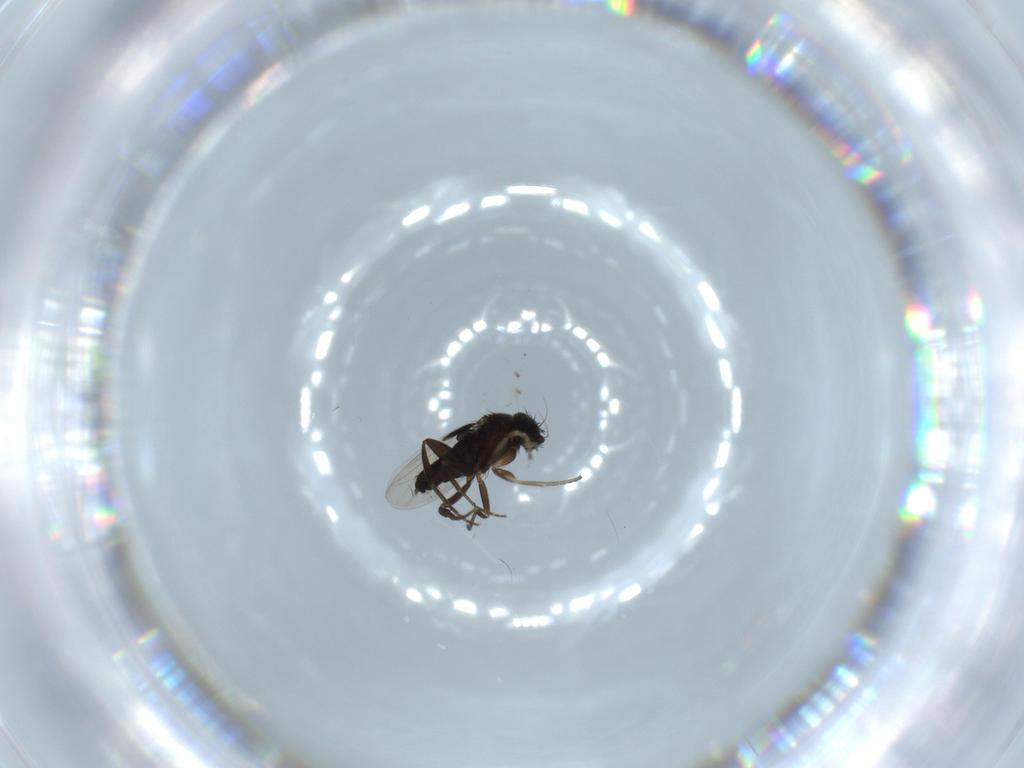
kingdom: Animalia
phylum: Arthropoda
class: Insecta
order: Diptera
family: Phoridae
